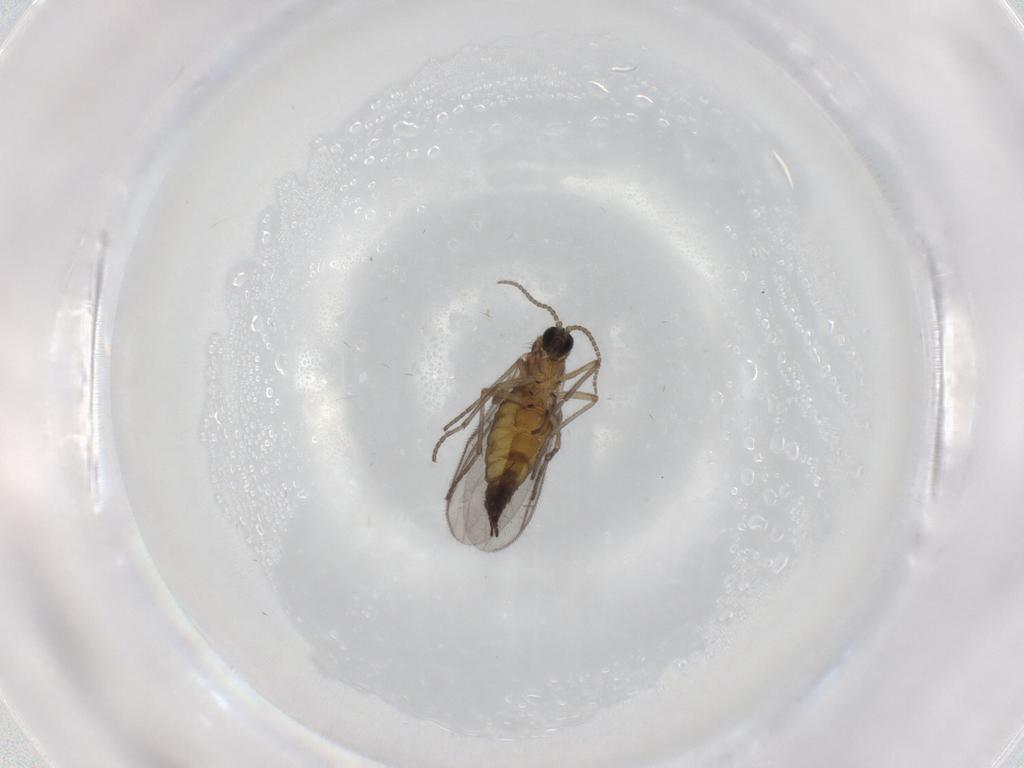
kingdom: Animalia
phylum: Arthropoda
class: Insecta
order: Diptera
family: Sciaridae
